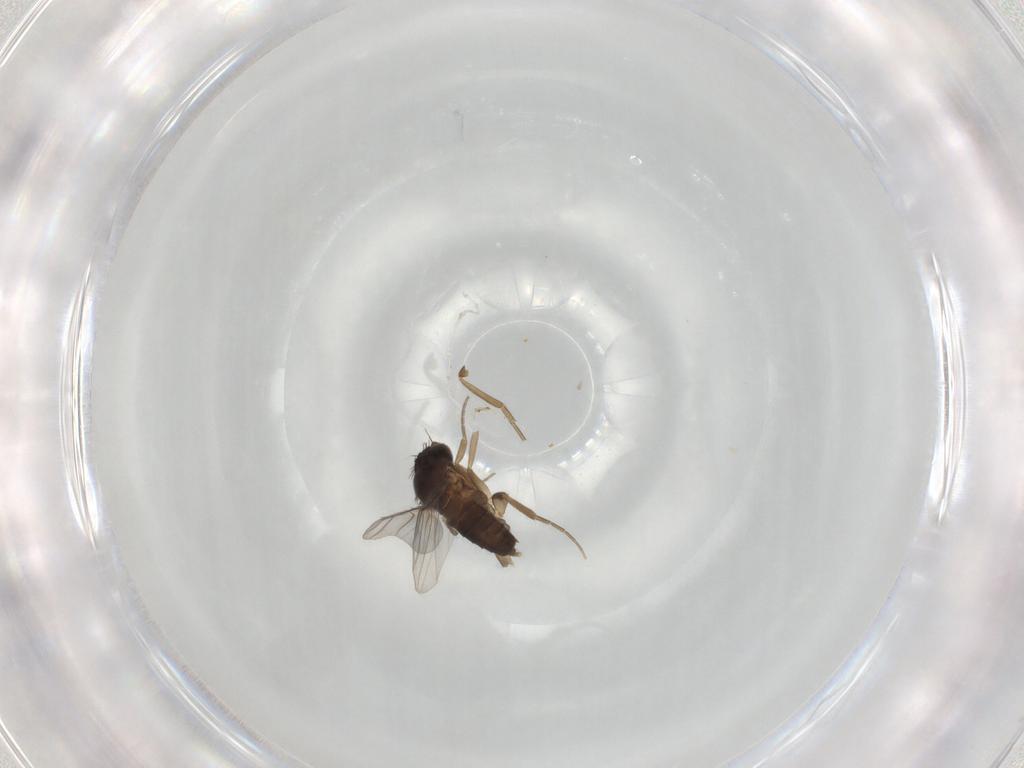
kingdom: Animalia
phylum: Arthropoda
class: Insecta
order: Diptera
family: Phoridae
